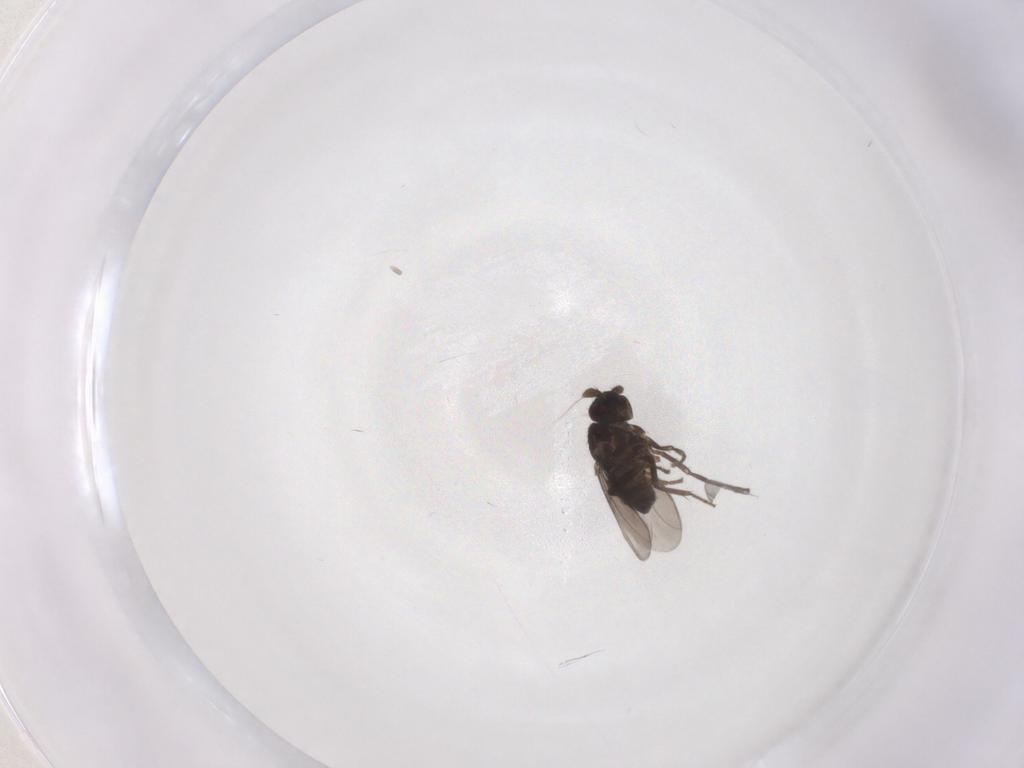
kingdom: Animalia
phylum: Arthropoda
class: Insecta
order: Diptera
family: Sphaeroceridae
